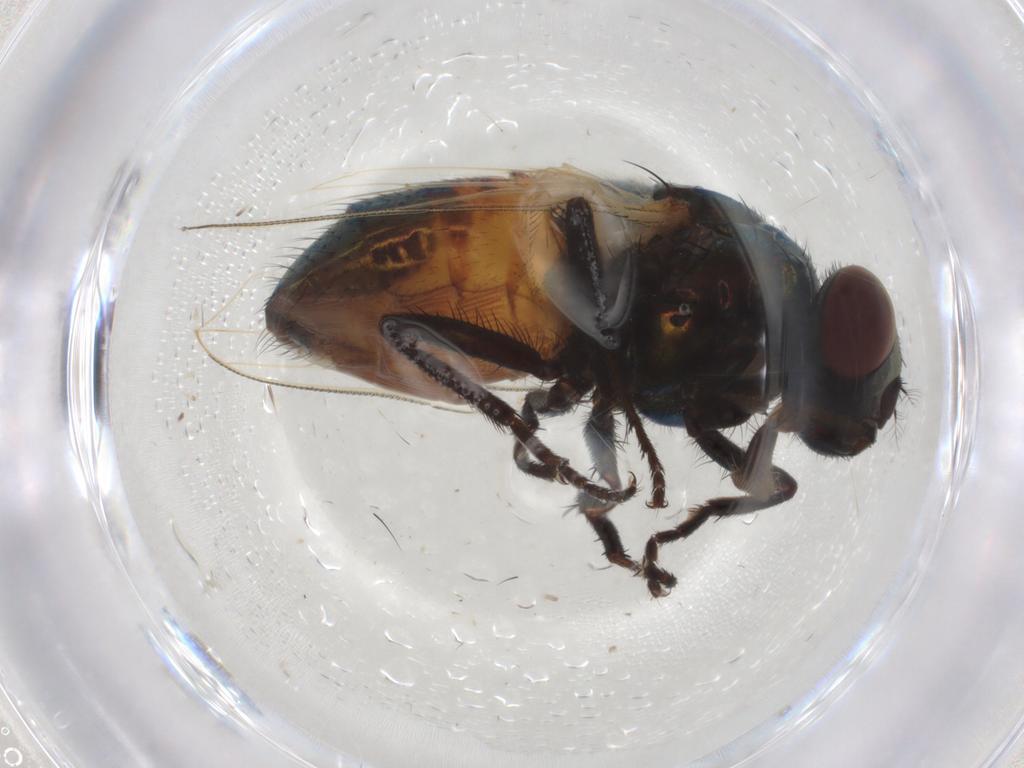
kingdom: Animalia
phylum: Arthropoda
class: Insecta
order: Diptera
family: Muscidae
